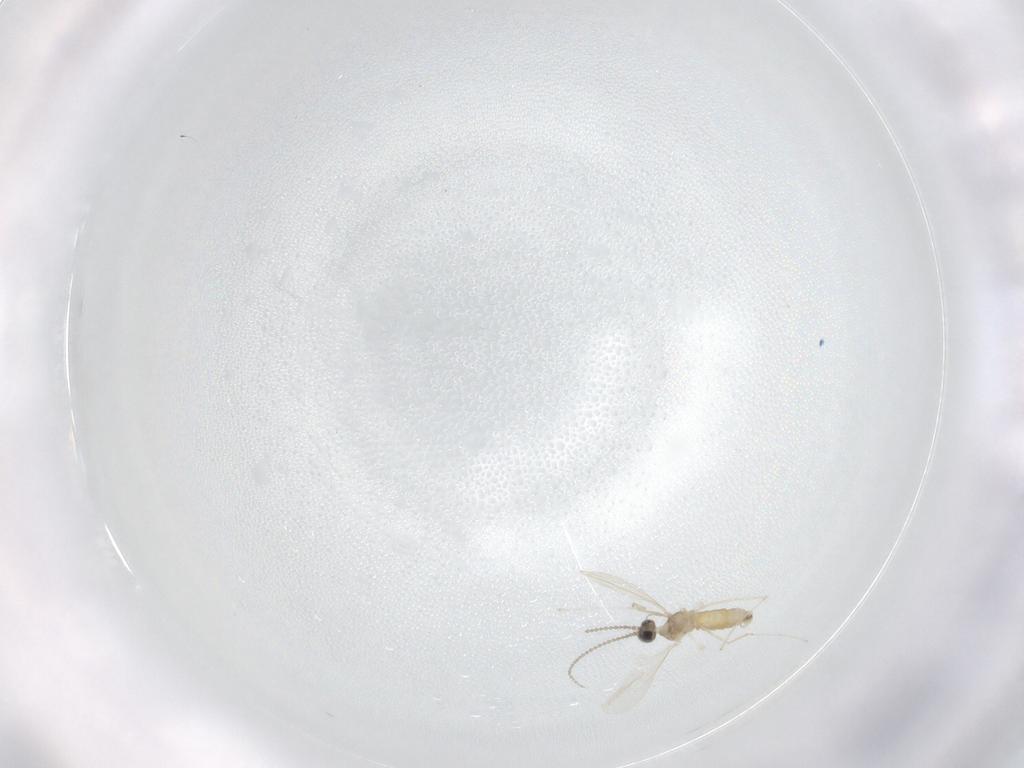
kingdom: Animalia
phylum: Arthropoda
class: Insecta
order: Diptera
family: Cecidomyiidae
